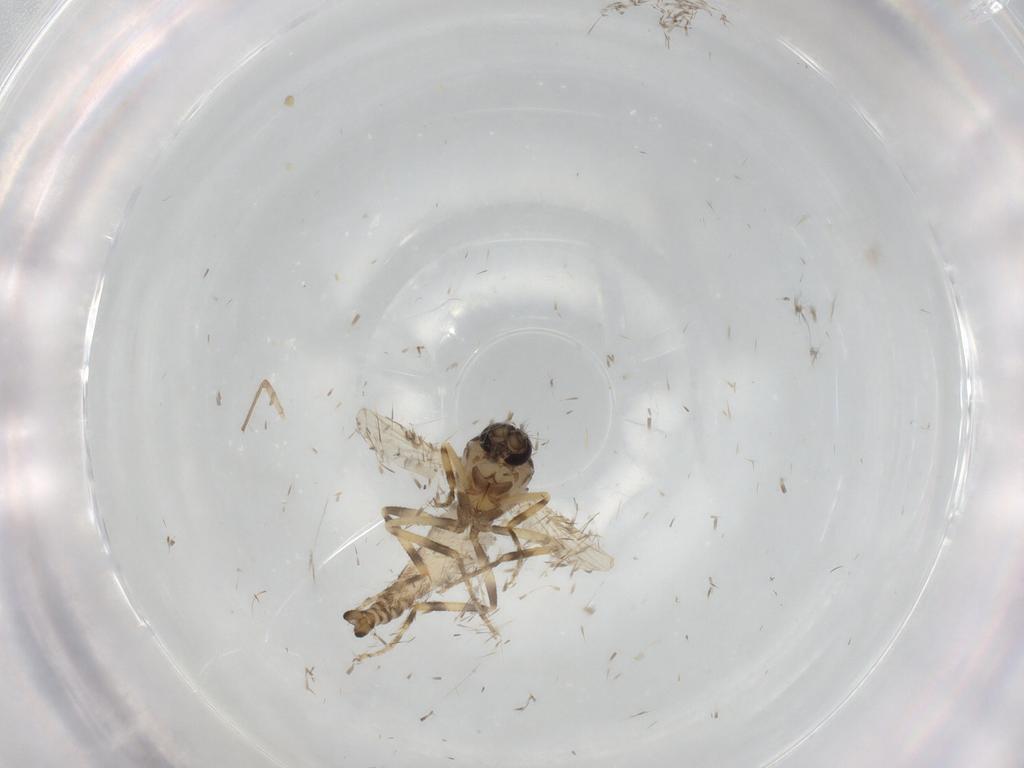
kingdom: Animalia
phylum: Arthropoda
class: Insecta
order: Diptera
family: Ceratopogonidae
